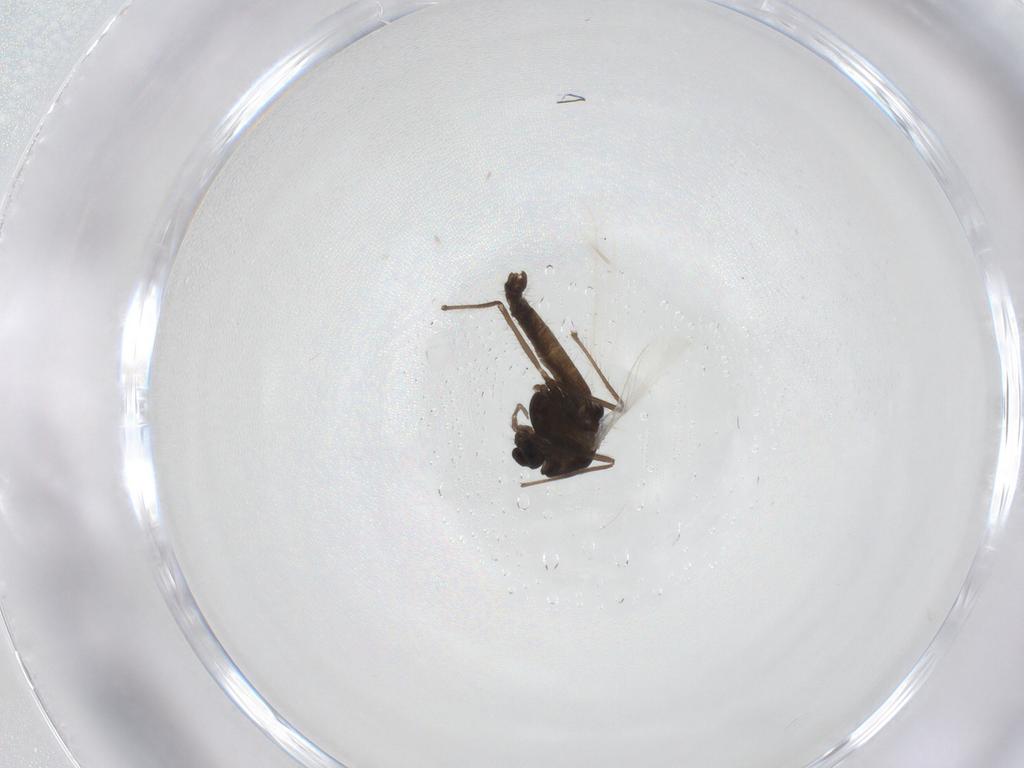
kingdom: Animalia
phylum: Arthropoda
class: Insecta
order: Diptera
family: Chironomidae
